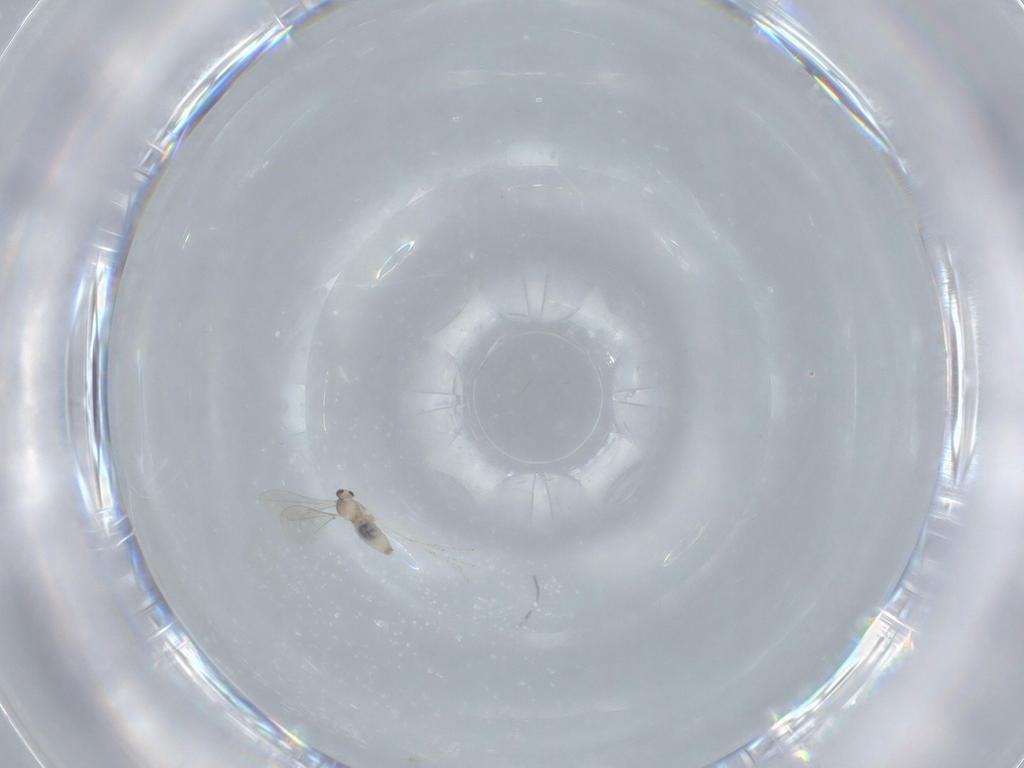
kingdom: Animalia
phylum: Arthropoda
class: Insecta
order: Diptera
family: Cecidomyiidae
